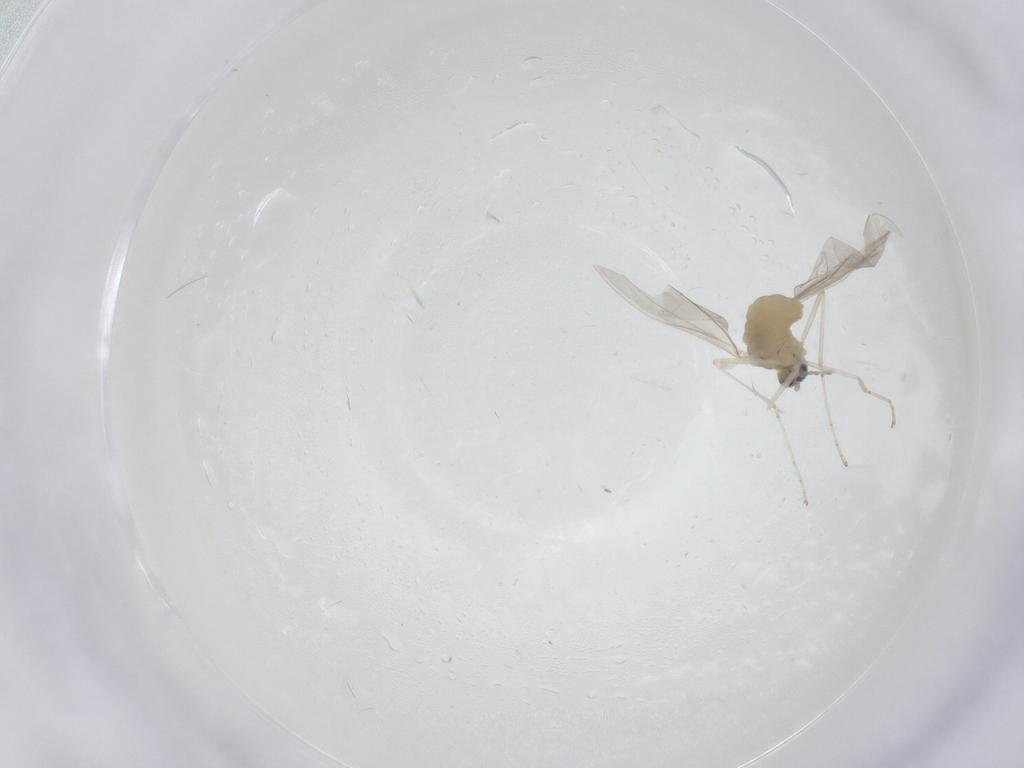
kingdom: Animalia
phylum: Arthropoda
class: Insecta
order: Diptera
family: Cecidomyiidae
